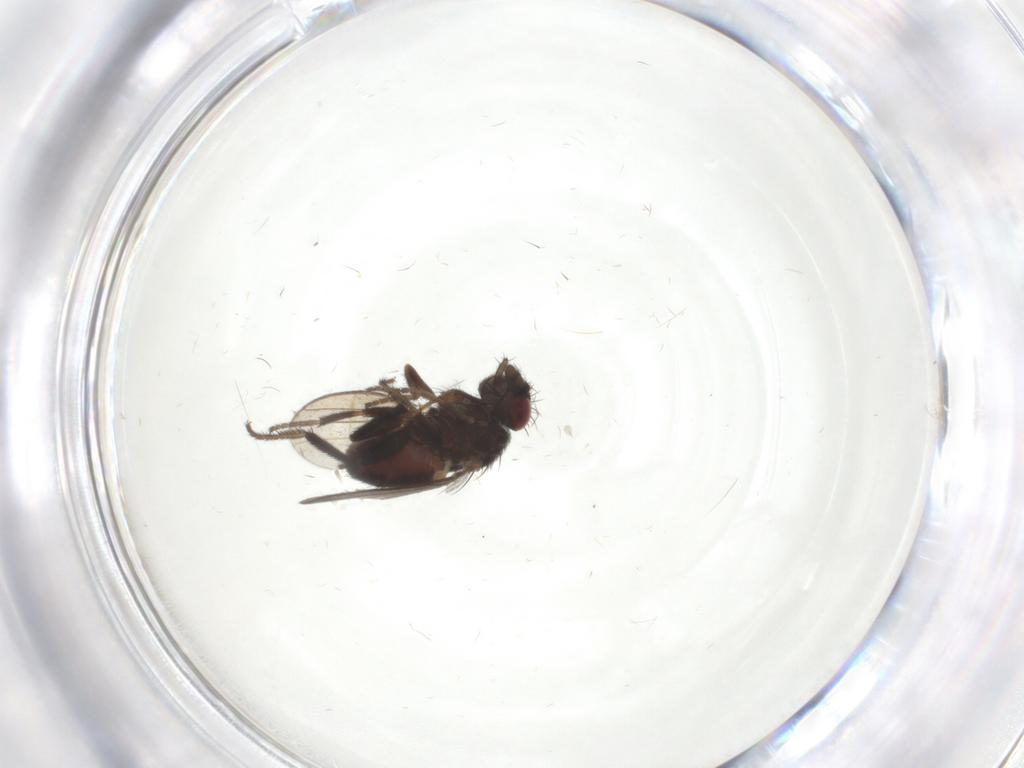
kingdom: Animalia
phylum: Arthropoda
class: Insecta
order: Diptera
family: Milichiidae
